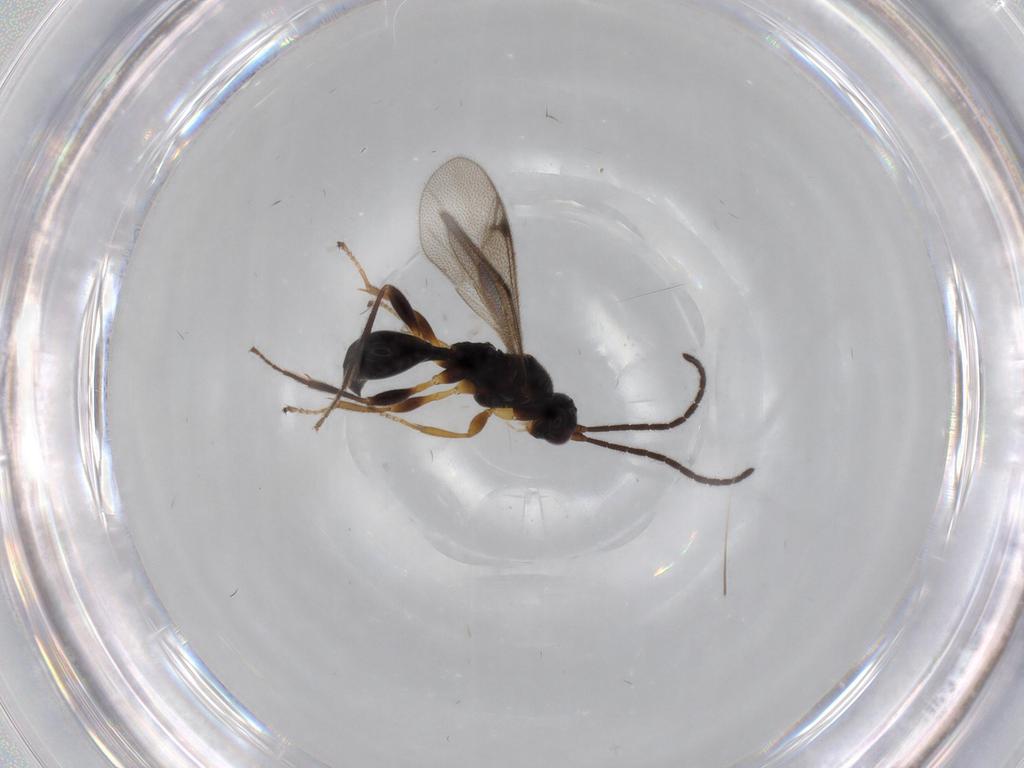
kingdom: Animalia
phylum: Arthropoda
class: Insecta
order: Hymenoptera
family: Proctotrupidae
